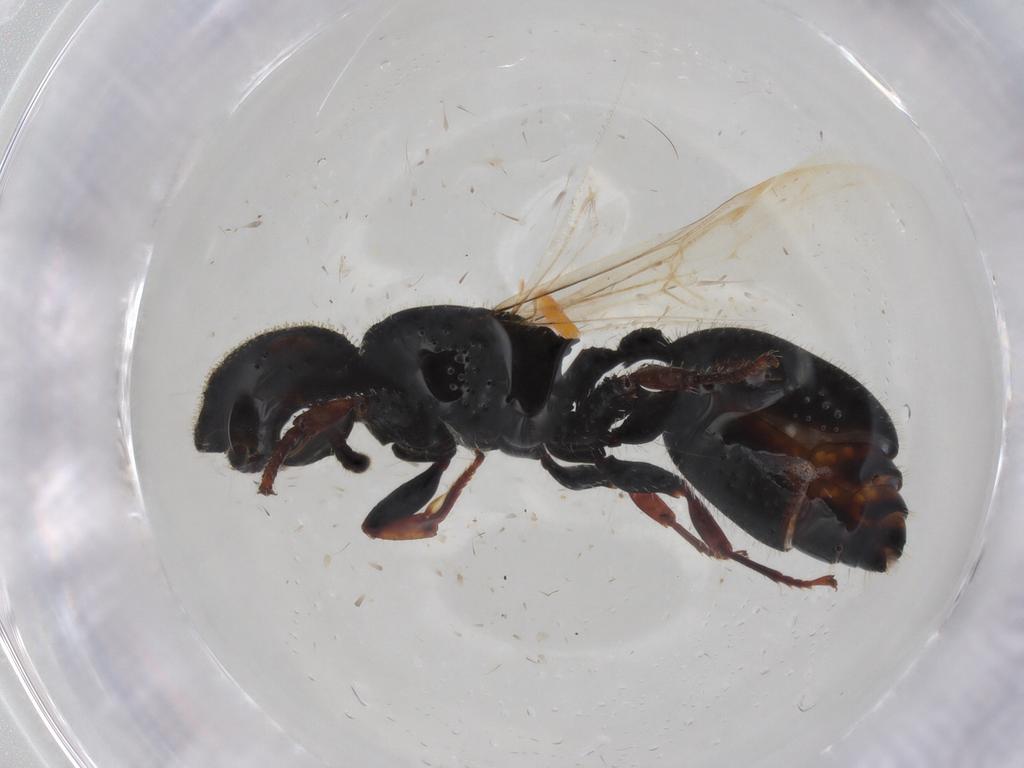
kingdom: Animalia
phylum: Arthropoda
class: Insecta
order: Hymenoptera
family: Formicidae
